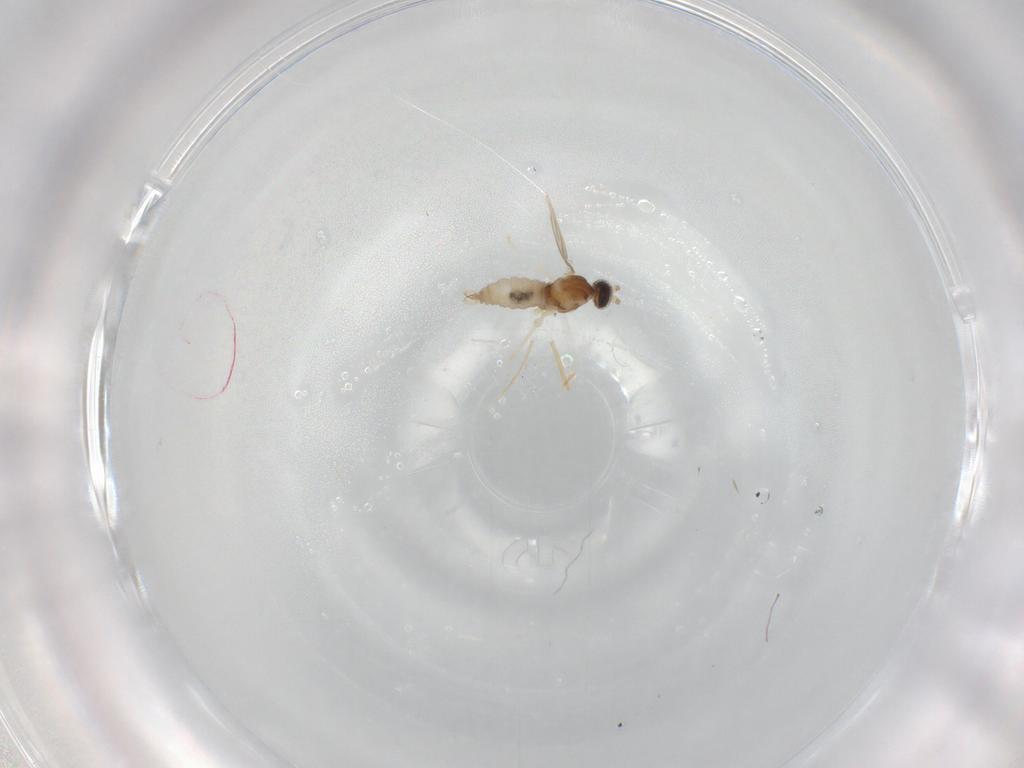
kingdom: Animalia
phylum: Arthropoda
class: Insecta
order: Diptera
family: Cecidomyiidae
